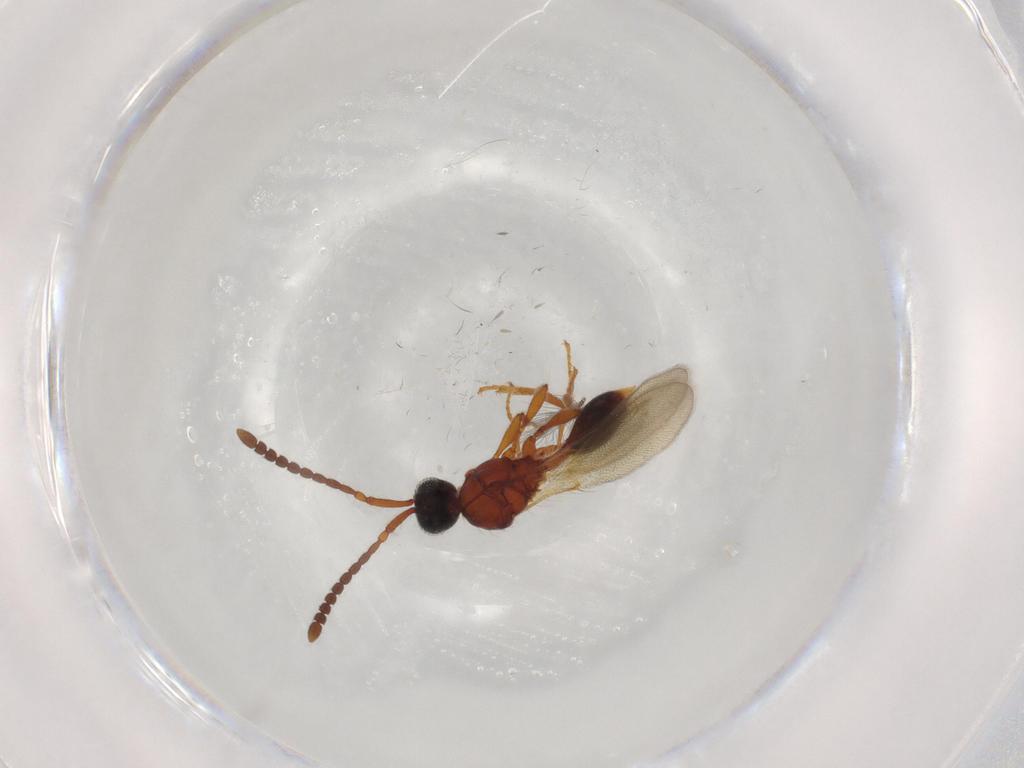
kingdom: Animalia
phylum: Arthropoda
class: Insecta
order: Hymenoptera
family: Diapriidae
